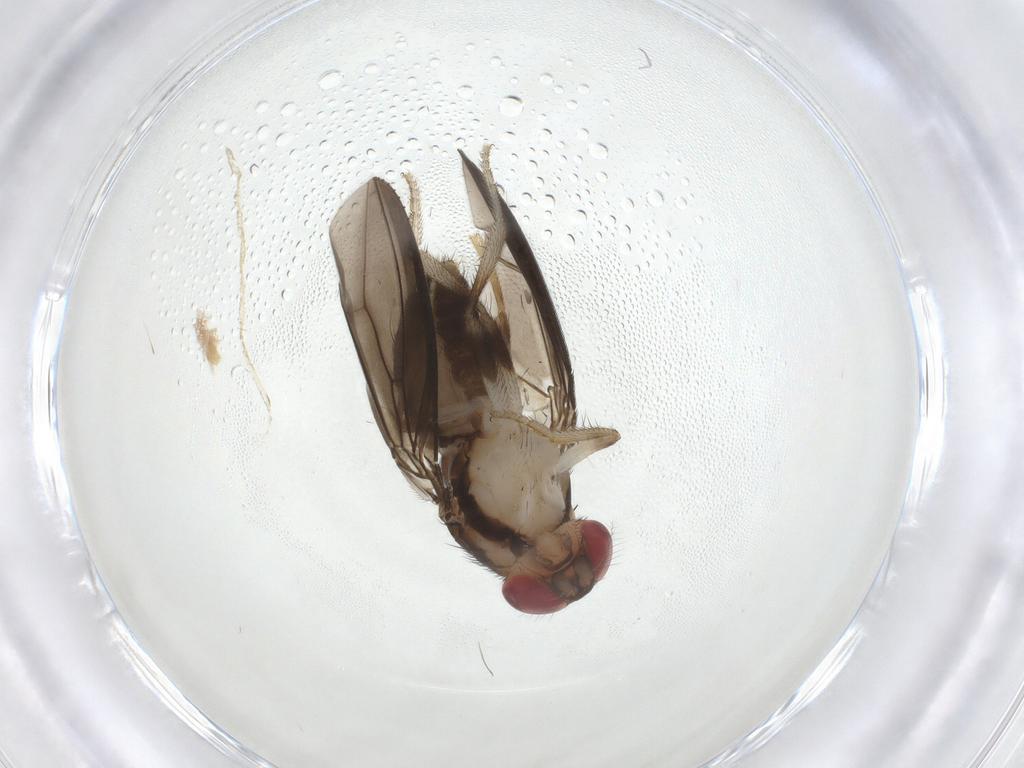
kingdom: Animalia
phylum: Arthropoda
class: Insecta
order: Diptera
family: Drosophilidae
